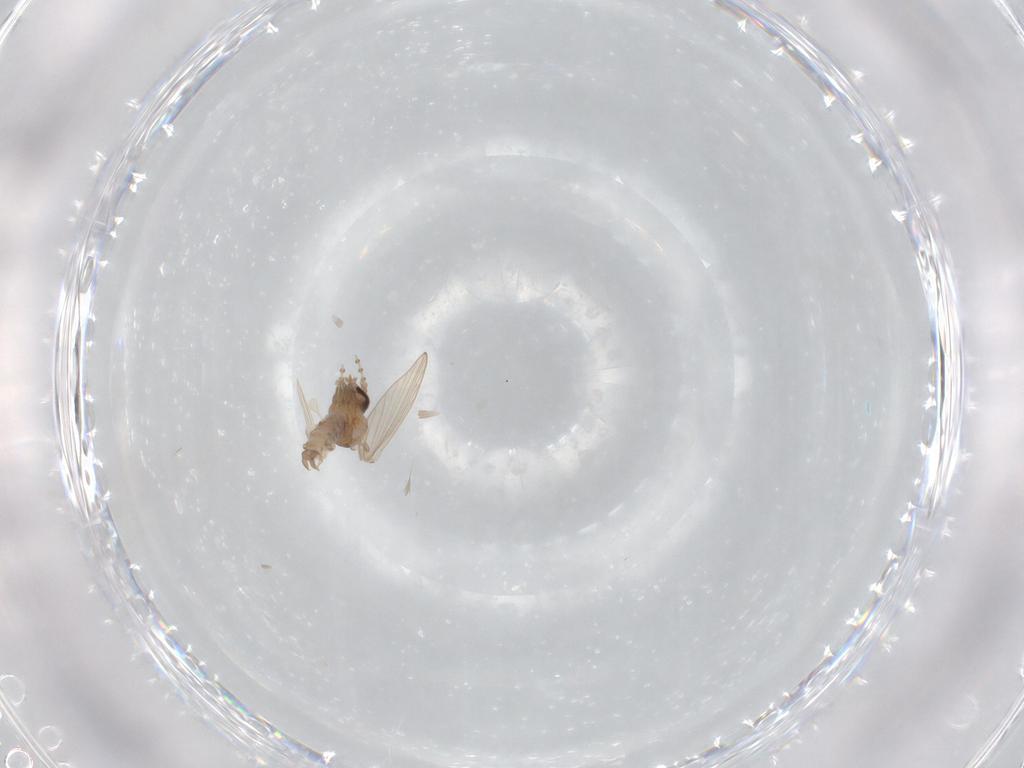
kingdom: Animalia
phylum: Arthropoda
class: Insecta
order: Diptera
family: Psychodidae
